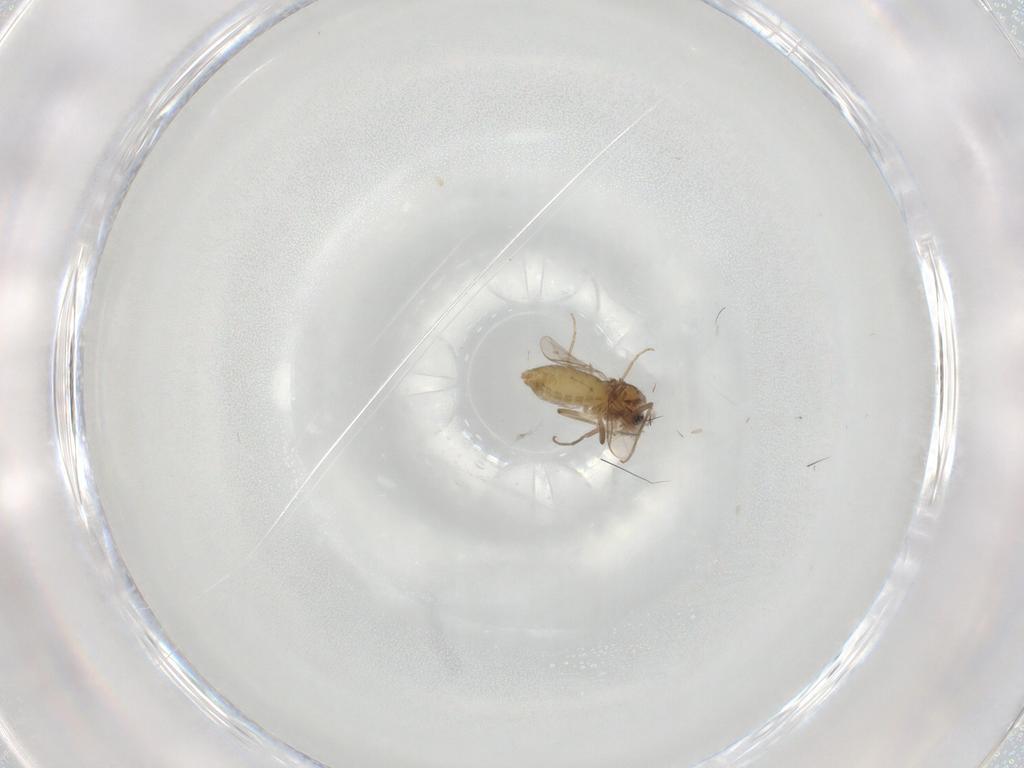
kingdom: Animalia
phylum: Arthropoda
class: Insecta
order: Diptera
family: Chironomidae
